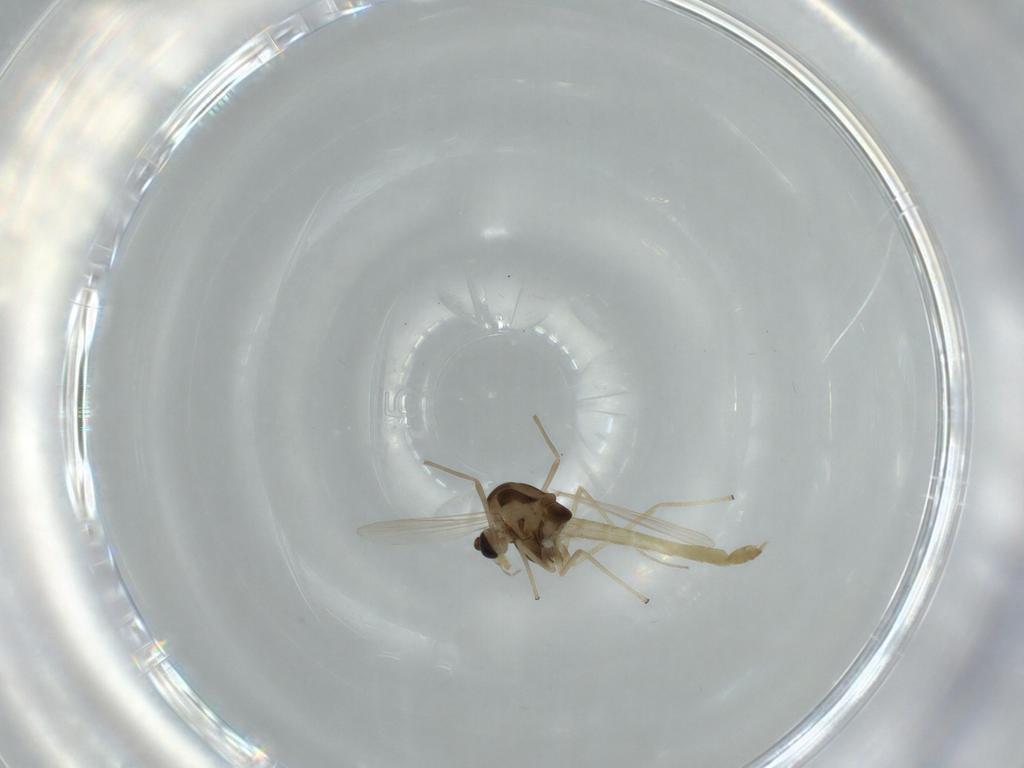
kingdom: Animalia
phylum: Arthropoda
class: Insecta
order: Diptera
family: Chironomidae
